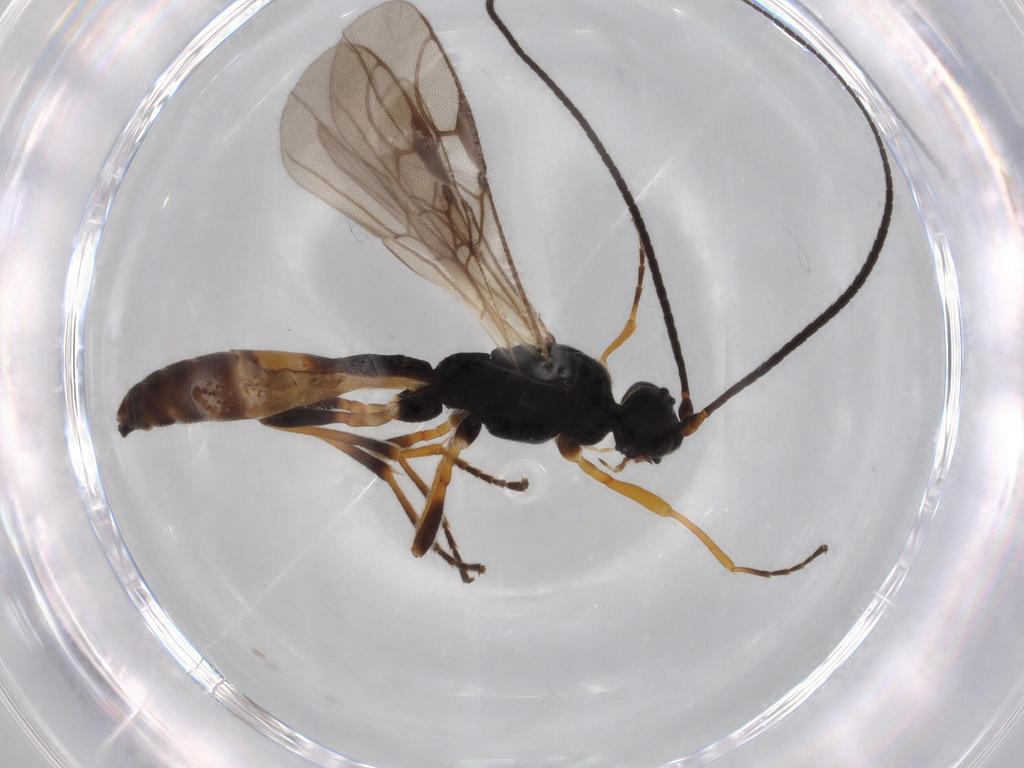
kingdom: Animalia
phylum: Arthropoda
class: Insecta
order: Hymenoptera
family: Braconidae
